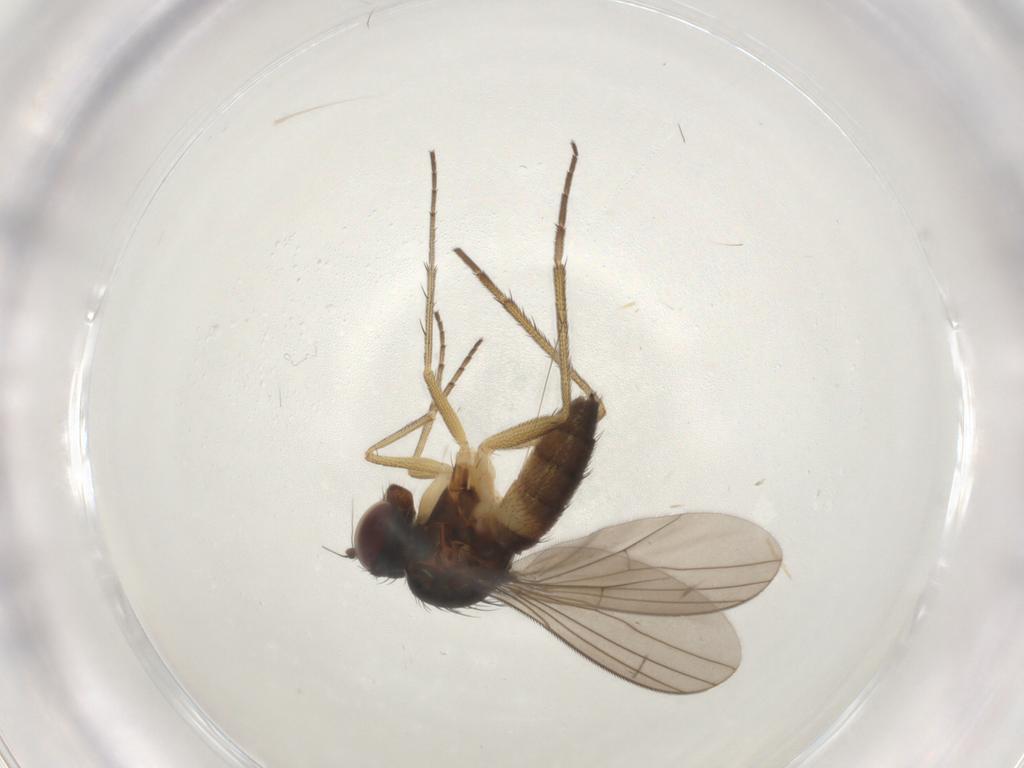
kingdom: Animalia
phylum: Arthropoda
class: Insecta
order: Diptera
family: Dolichopodidae
